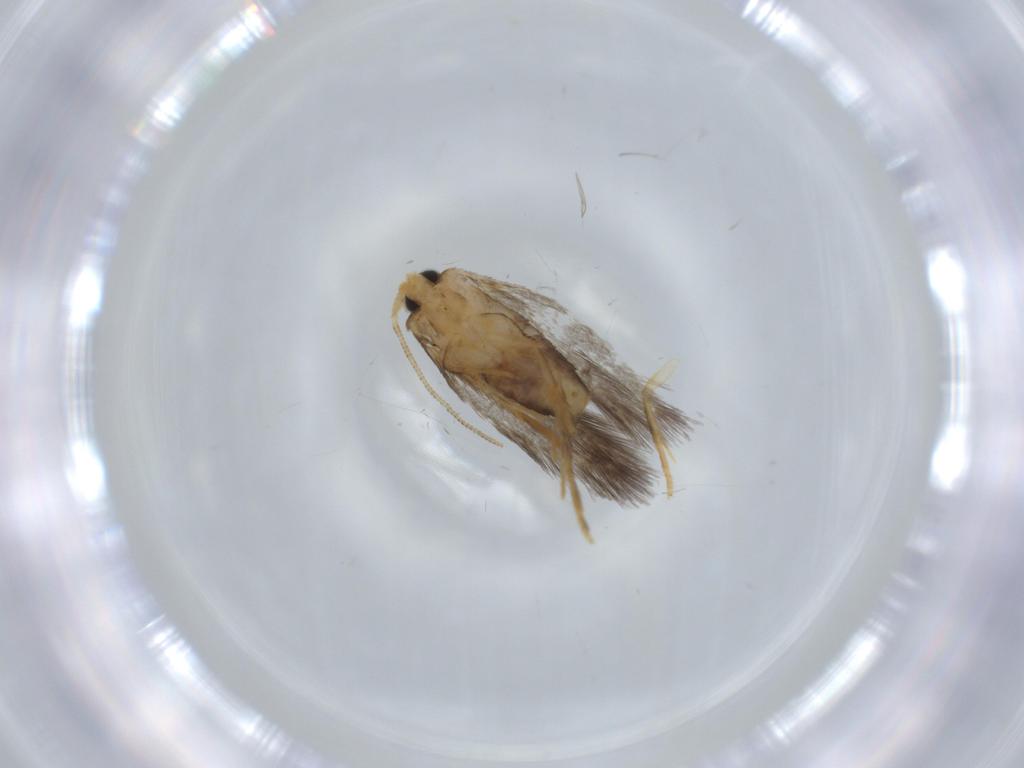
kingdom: Animalia
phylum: Arthropoda
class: Insecta
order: Lepidoptera
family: Nepticulidae
